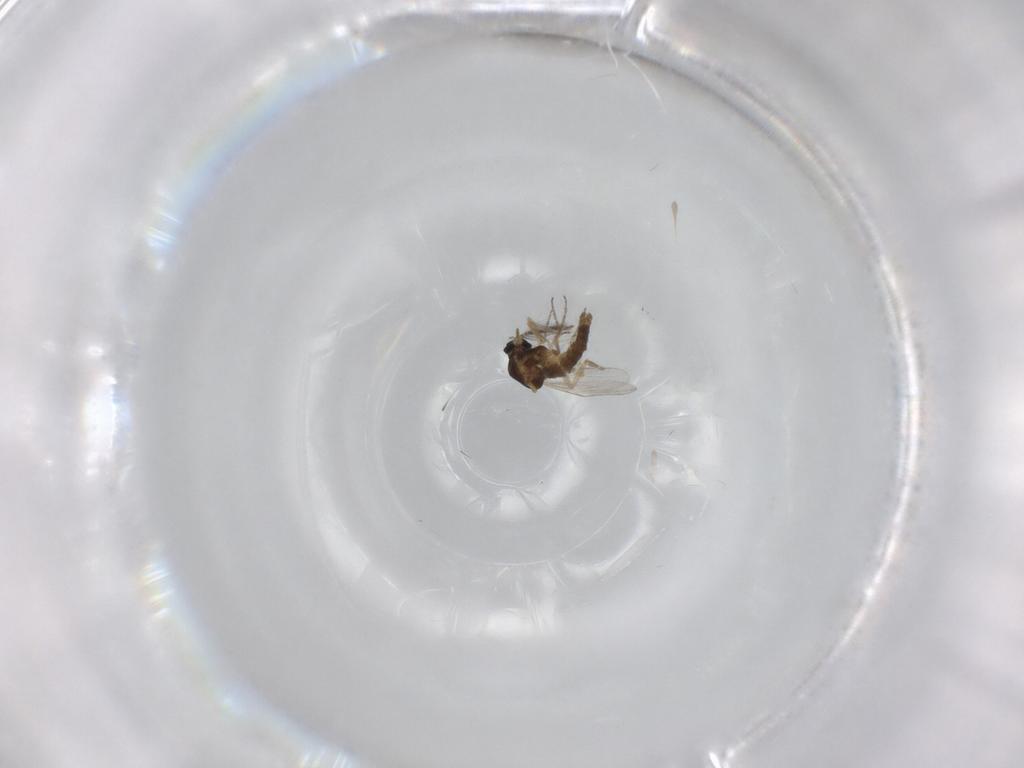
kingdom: Animalia
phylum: Arthropoda
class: Insecta
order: Diptera
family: Ceratopogonidae
